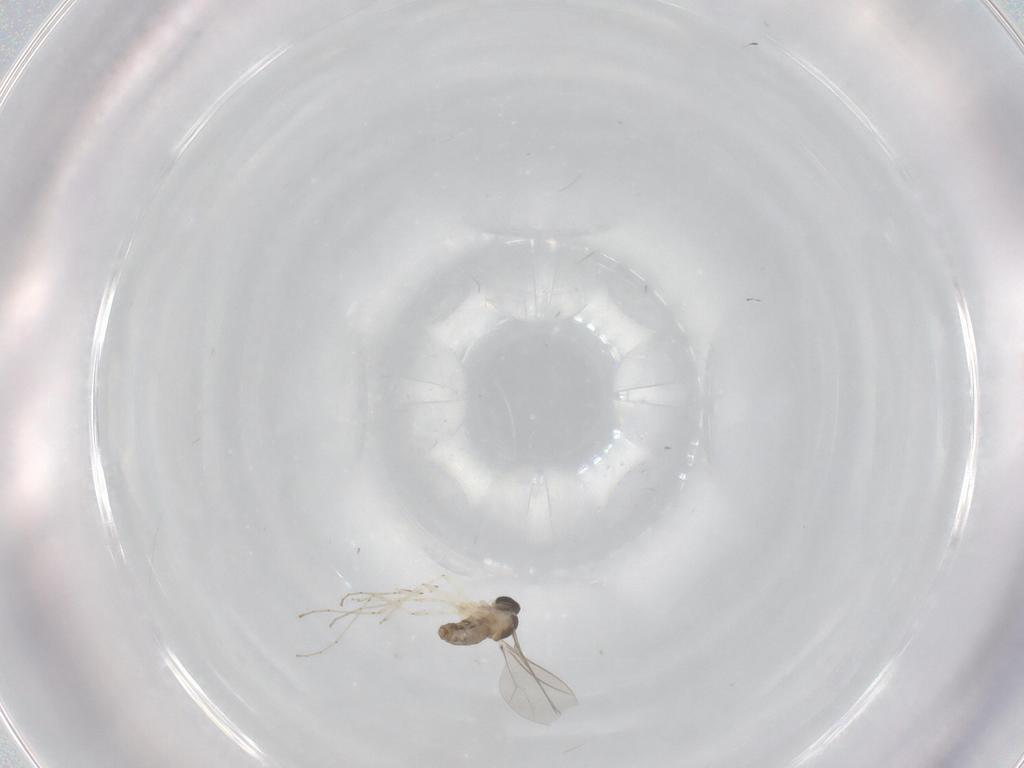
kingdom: Animalia
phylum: Arthropoda
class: Insecta
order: Diptera
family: Cecidomyiidae
